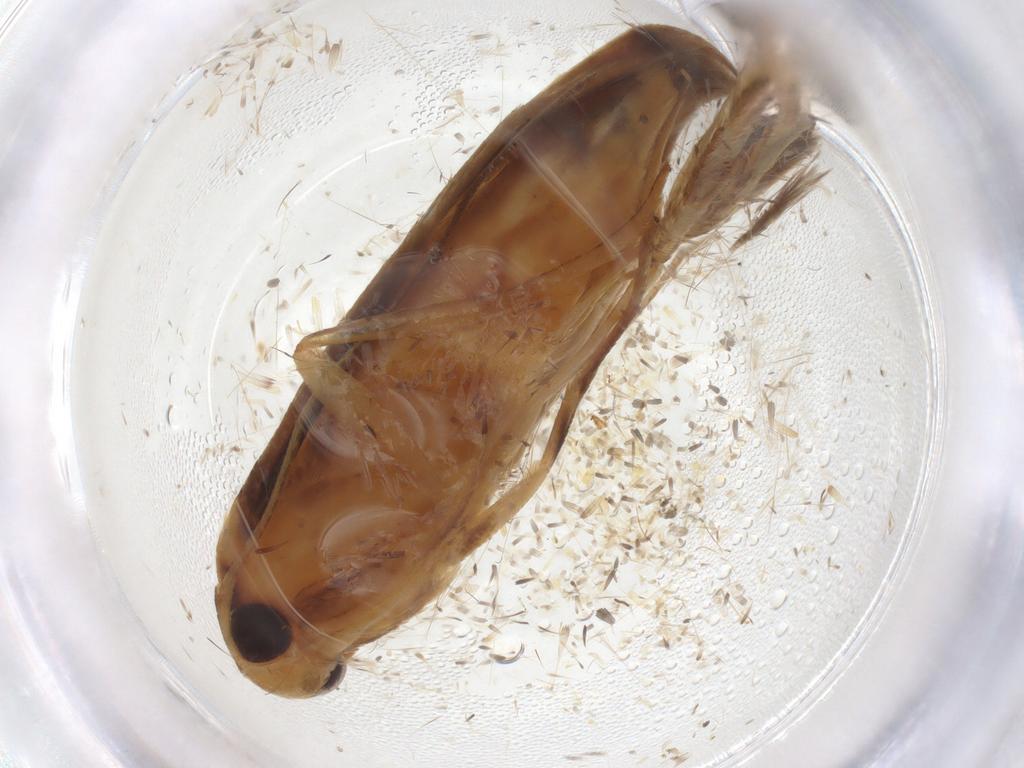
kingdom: Animalia
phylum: Arthropoda
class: Insecta
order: Lepidoptera
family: Stathmopodidae
